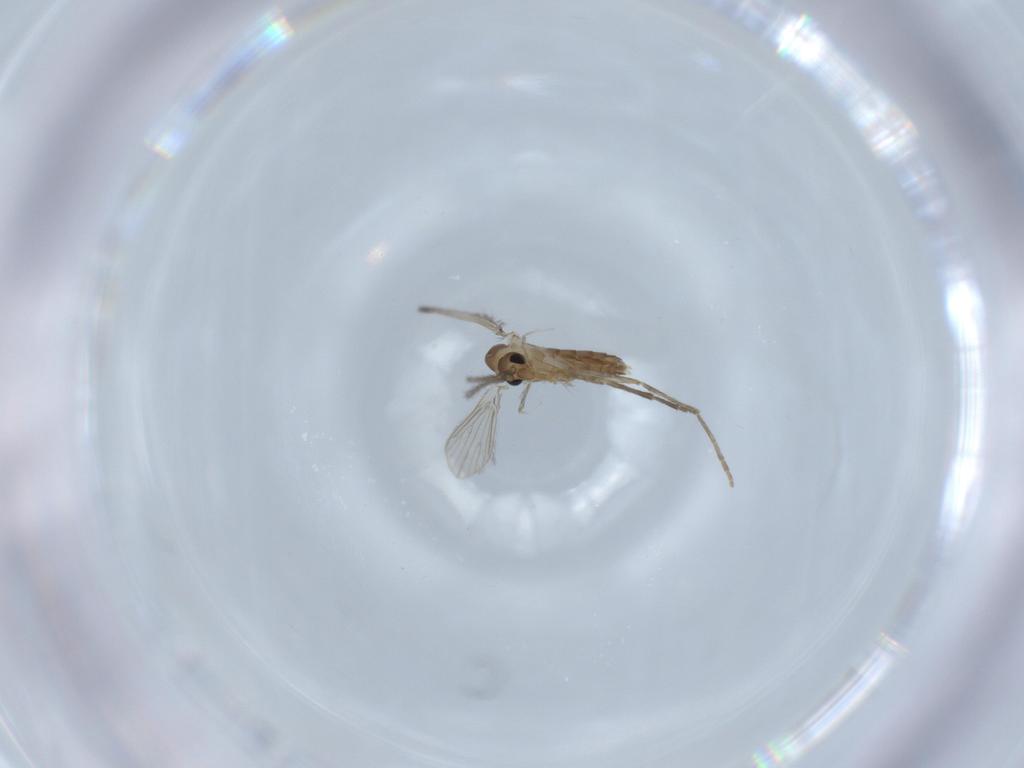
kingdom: Animalia
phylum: Arthropoda
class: Insecta
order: Diptera
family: Psychodidae
